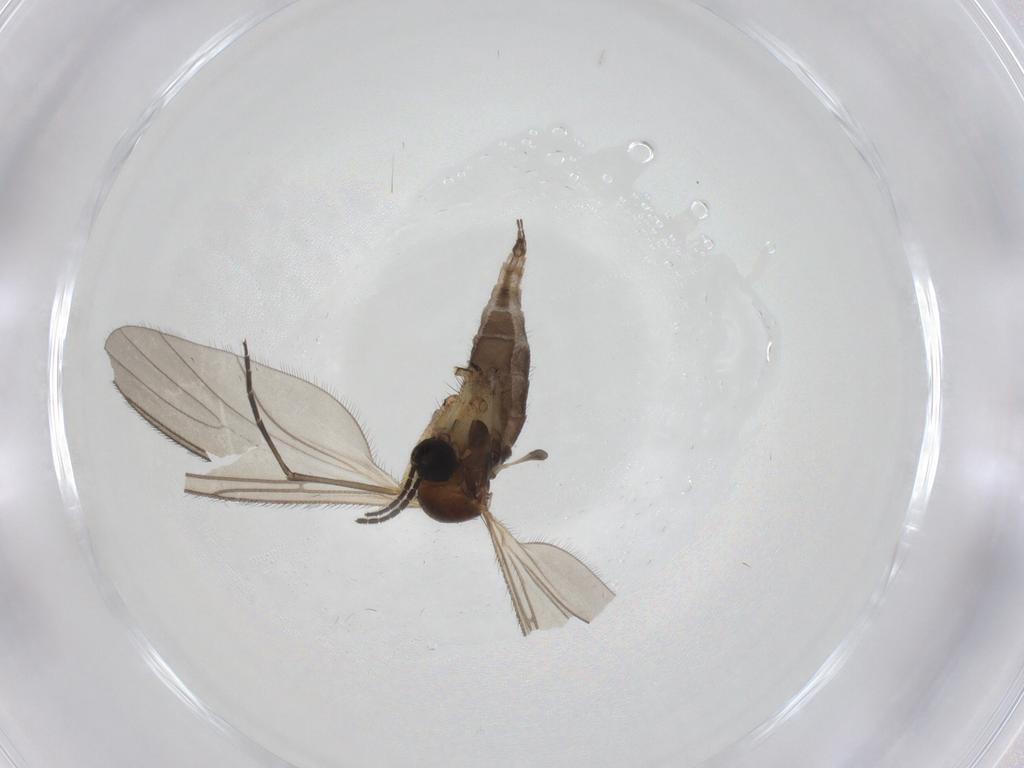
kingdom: Animalia
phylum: Arthropoda
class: Insecta
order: Diptera
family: Sciaridae
